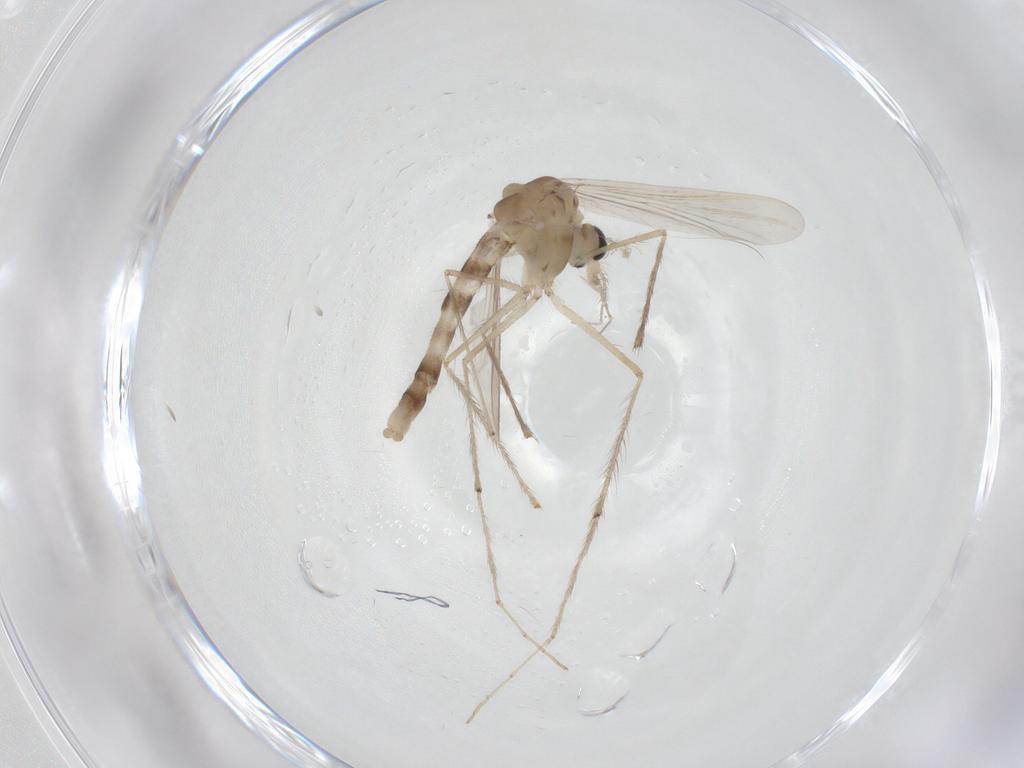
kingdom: Animalia
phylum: Arthropoda
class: Insecta
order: Diptera
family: Chironomidae
